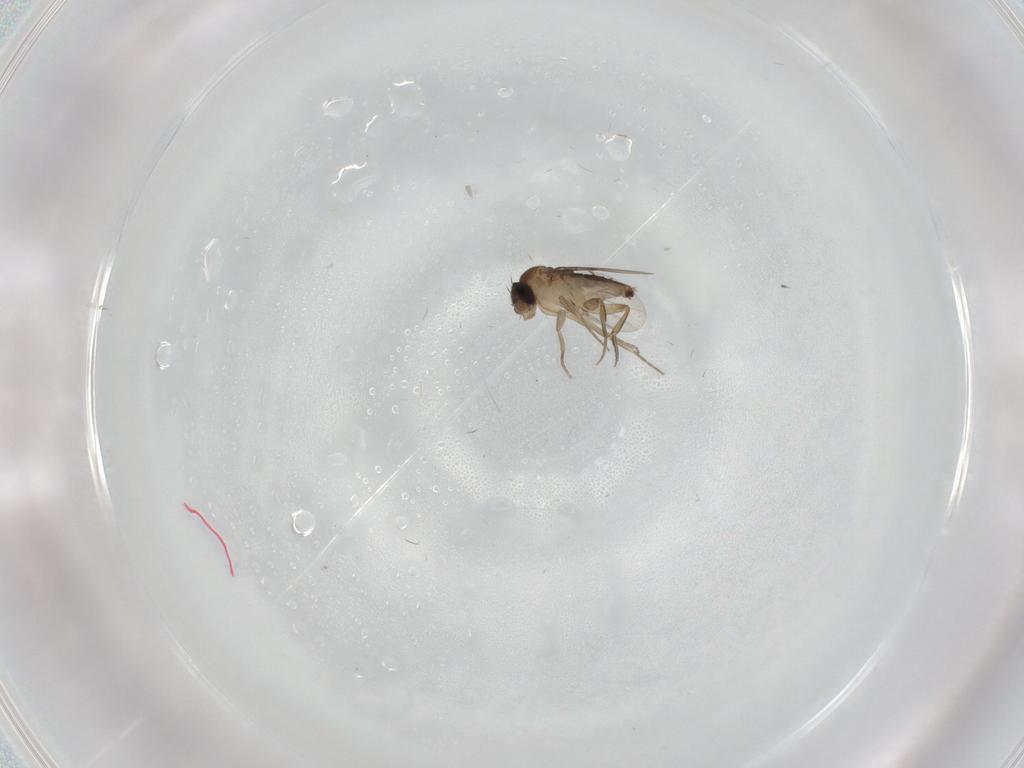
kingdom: Animalia
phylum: Arthropoda
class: Insecta
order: Diptera
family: Phoridae
